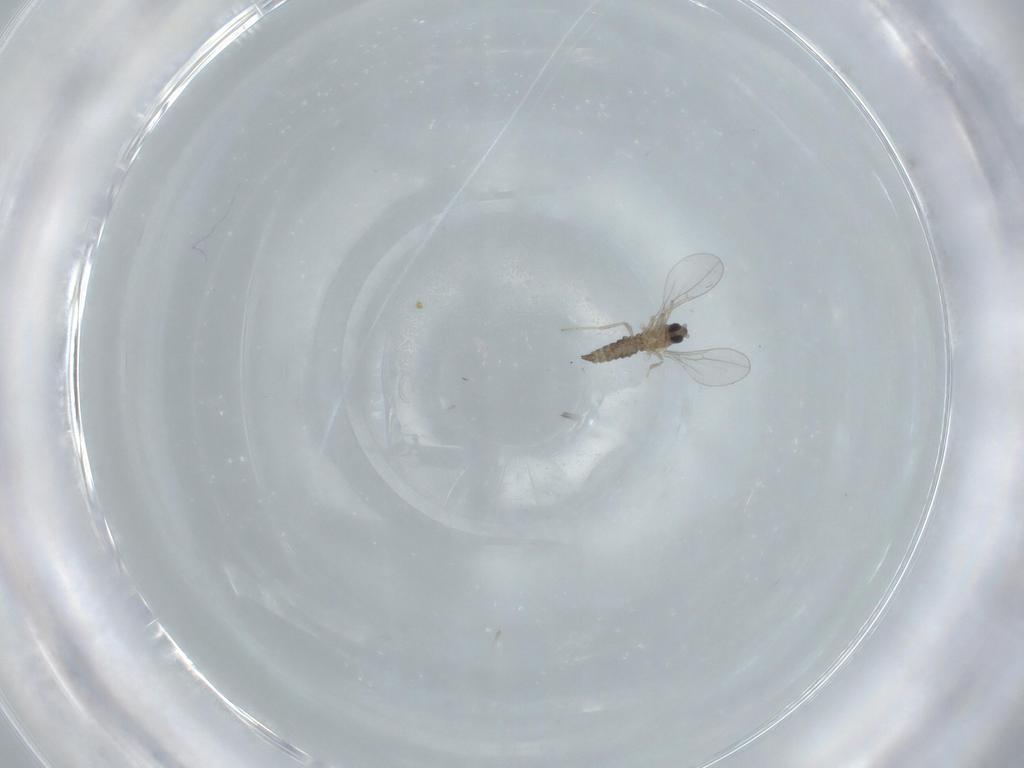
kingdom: Animalia
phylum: Arthropoda
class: Insecta
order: Diptera
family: Cecidomyiidae
